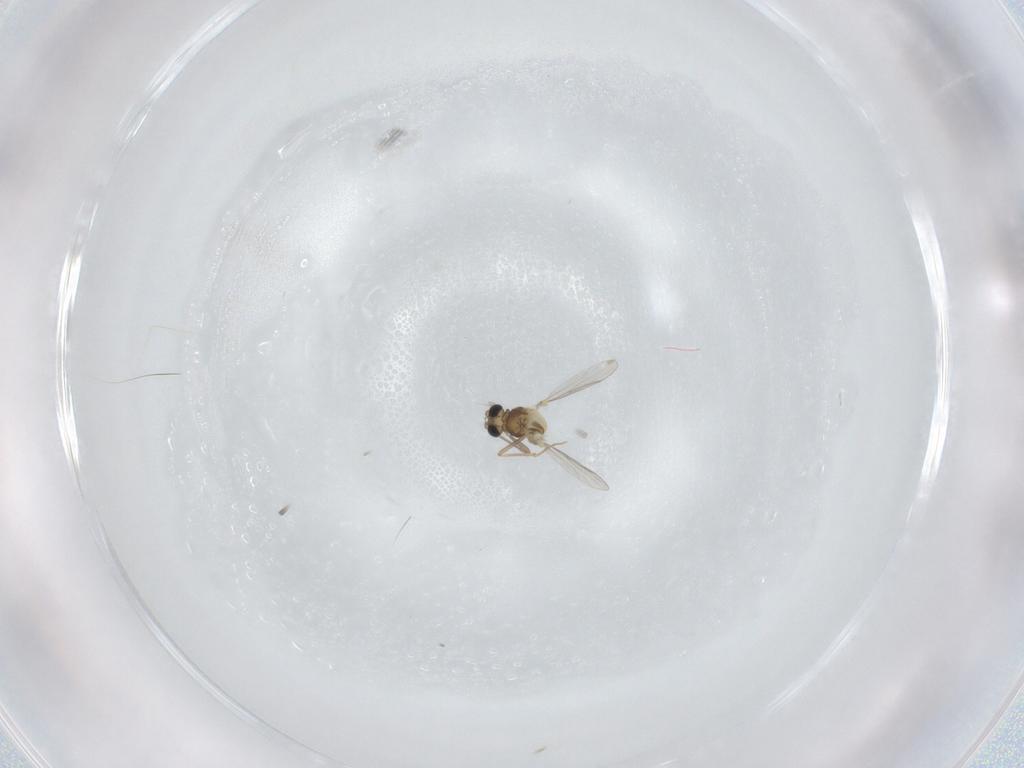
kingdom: Animalia
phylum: Arthropoda
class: Insecta
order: Diptera
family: Chironomidae
